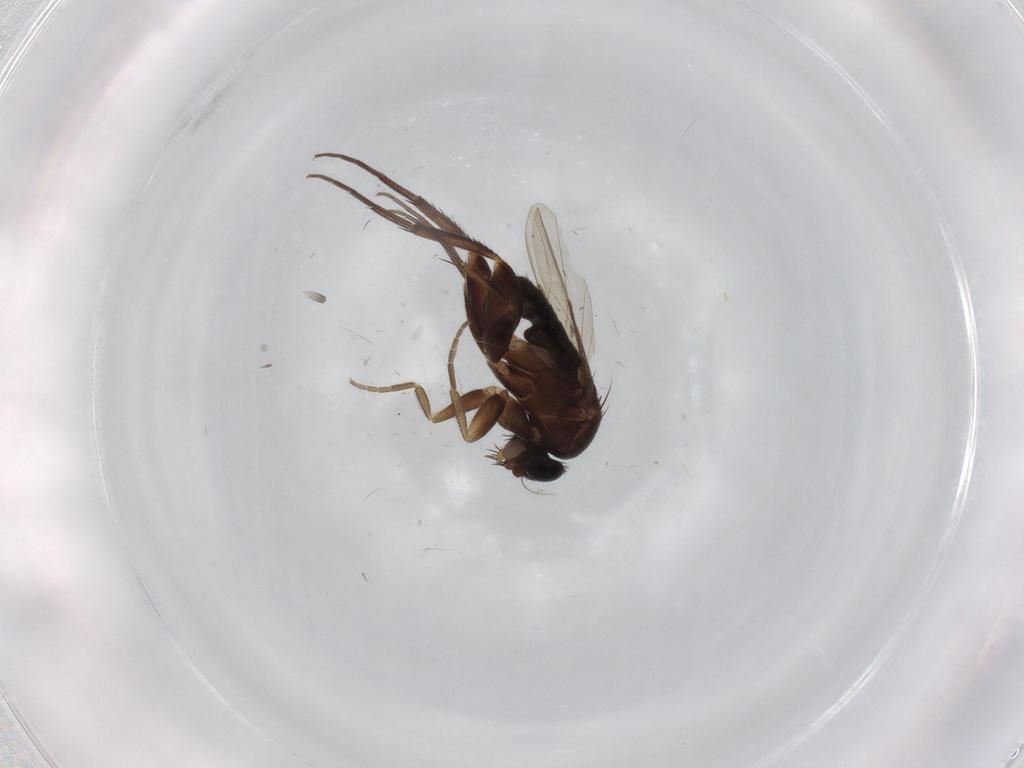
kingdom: Animalia
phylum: Arthropoda
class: Insecta
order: Diptera
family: Phoridae
